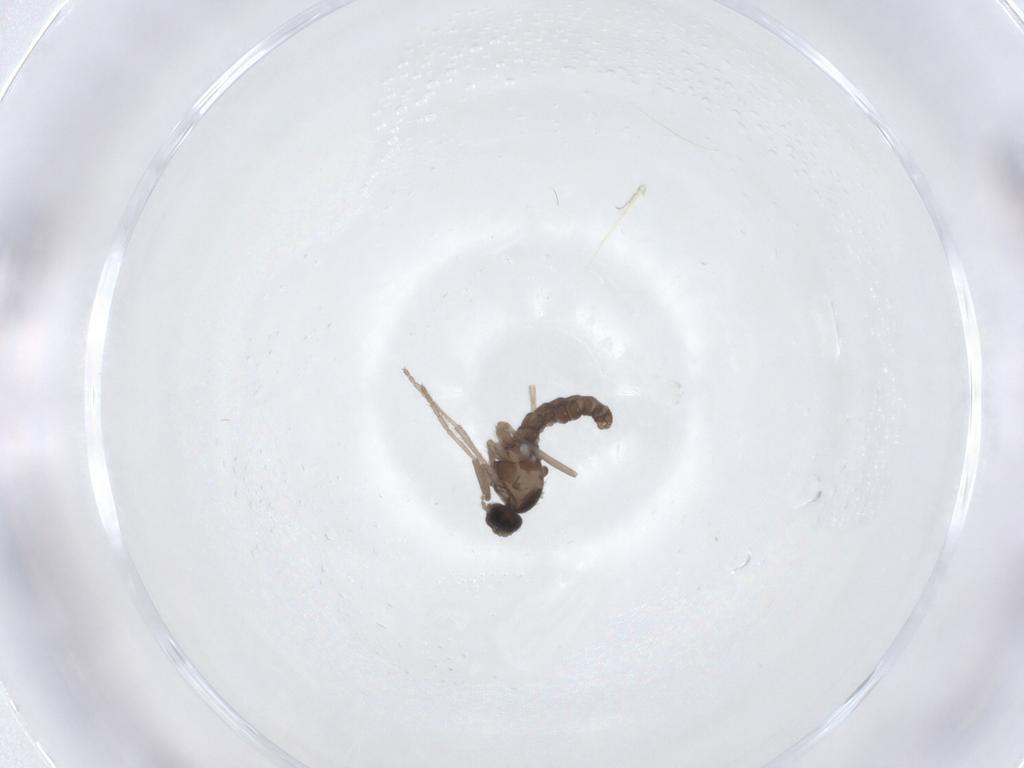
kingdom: Animalia
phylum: Arthropoda
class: Insecta
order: Diptera
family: Cecidomyiidae
